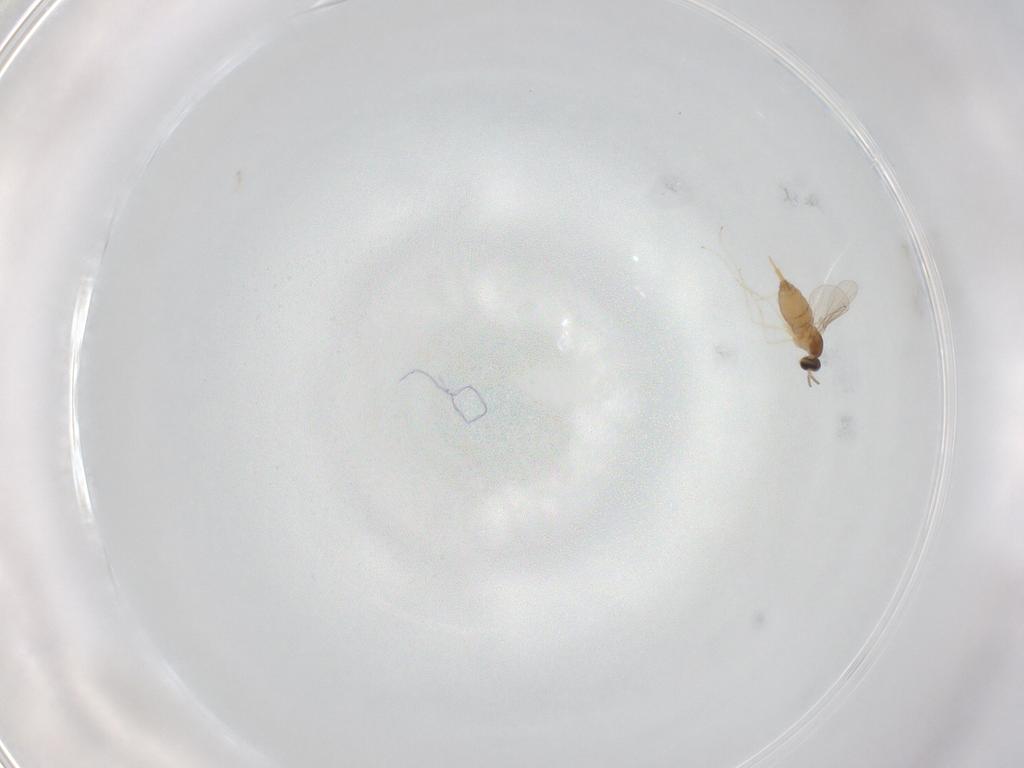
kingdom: Animalia
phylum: Arthropoda
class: Insecta
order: Diptera
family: Cecidomyiidae
